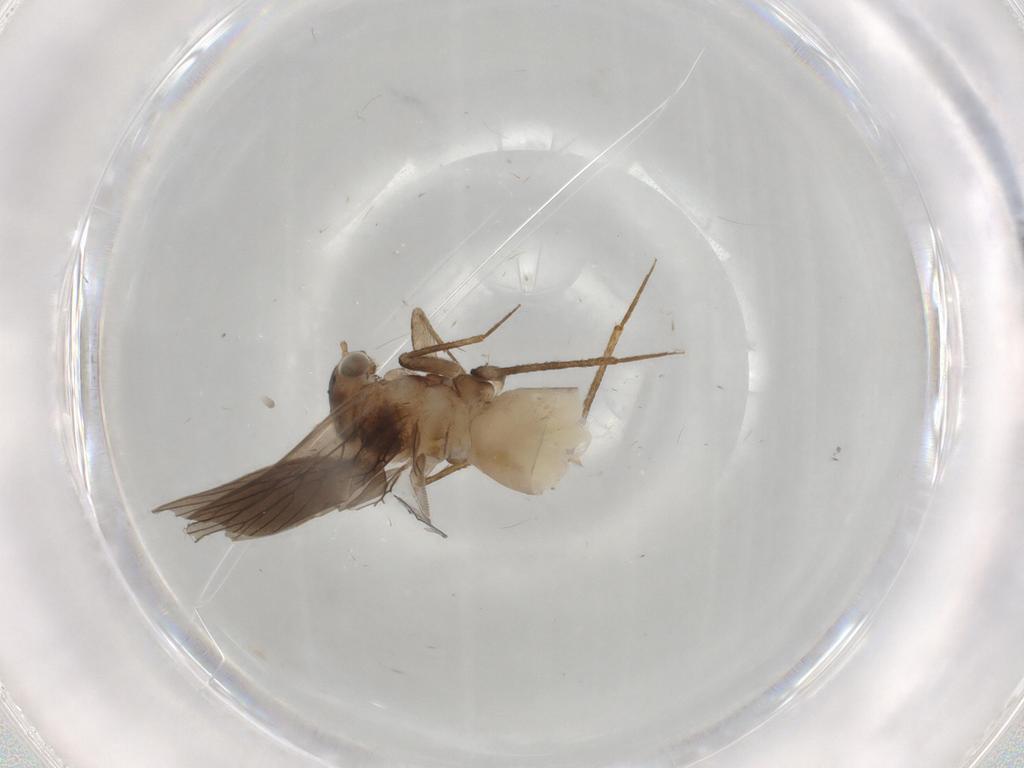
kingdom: Animalia
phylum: Arthropoda
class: Insecta
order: Psocodea
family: Lepidopsocidae
